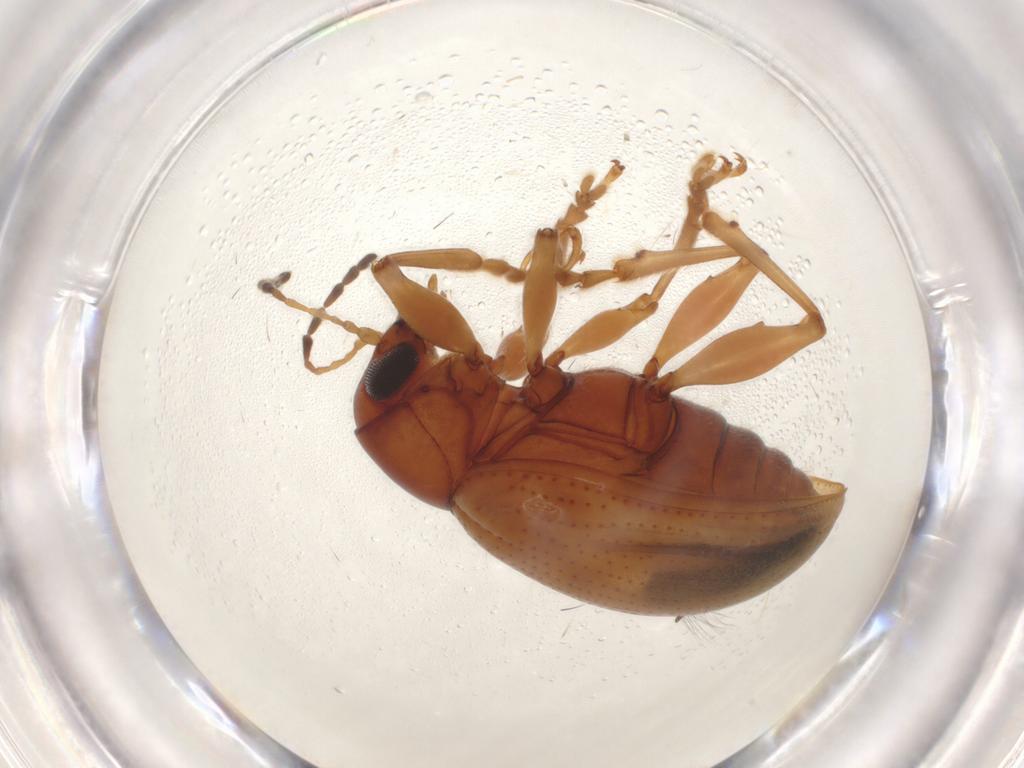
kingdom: Animalia
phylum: Arthropoda
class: Insecta
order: Coleoptera
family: Chrysomelidae
